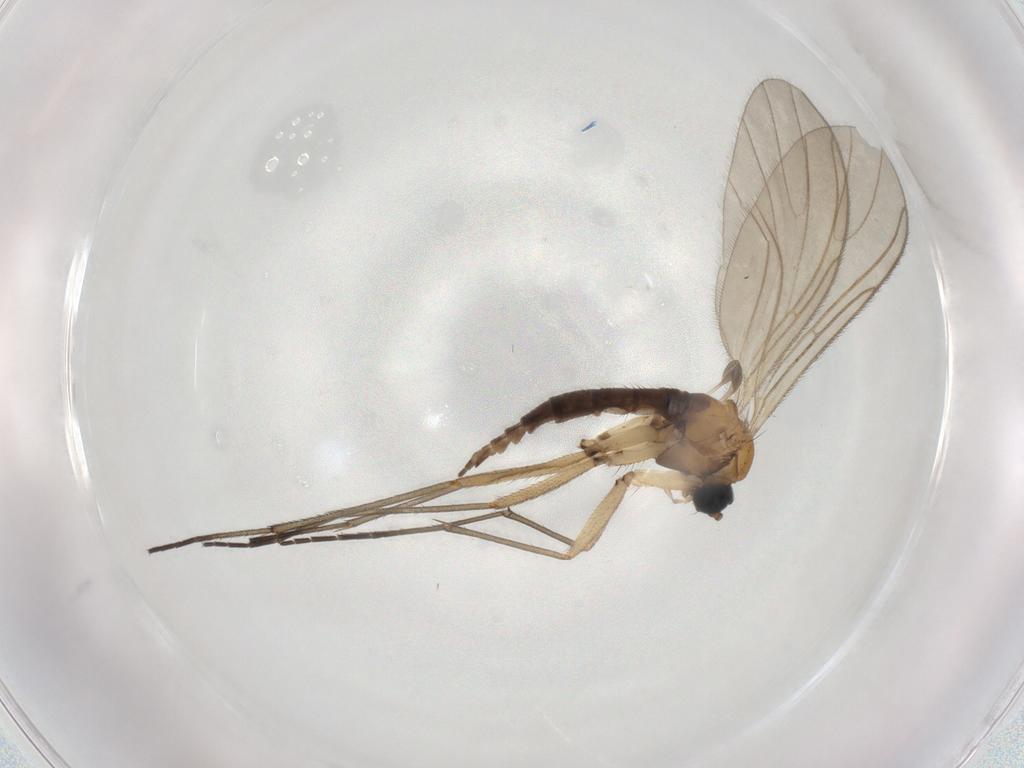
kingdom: Animalia
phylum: Arthropoda
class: Insecta
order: Diptera
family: Sciaridae
